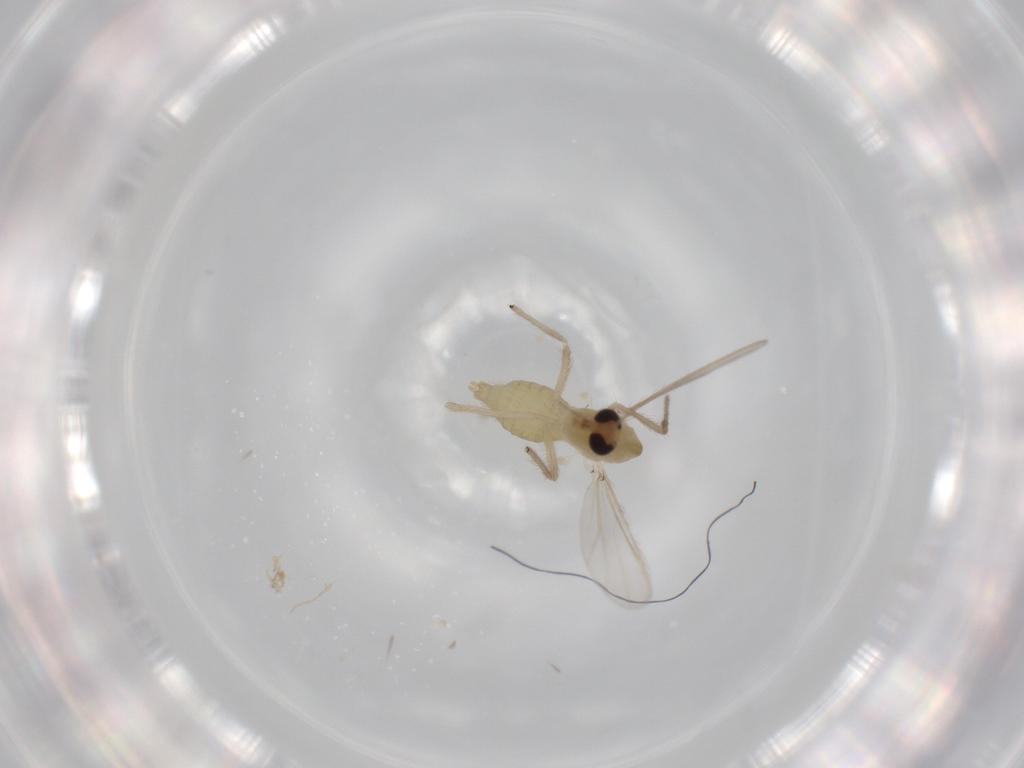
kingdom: Animalia
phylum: Arthropoda
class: Insecta
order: Diptera
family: Chironomidae
